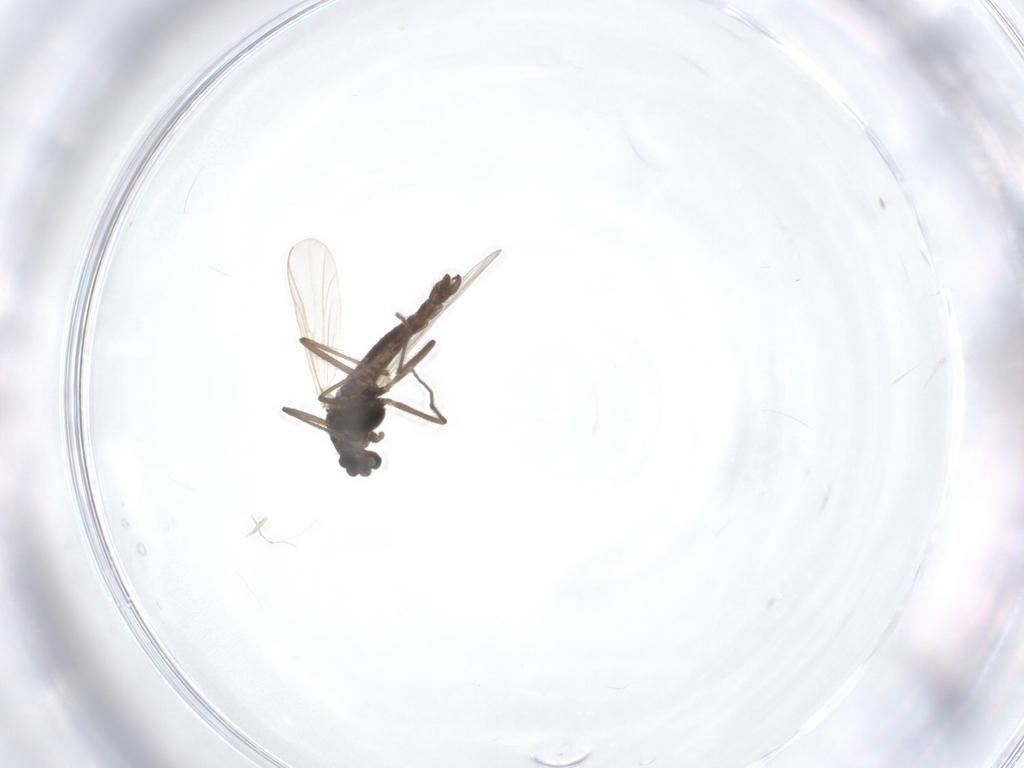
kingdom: Animalia
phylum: Arthropoda
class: Insecta
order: Diptera
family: Chironomidae
